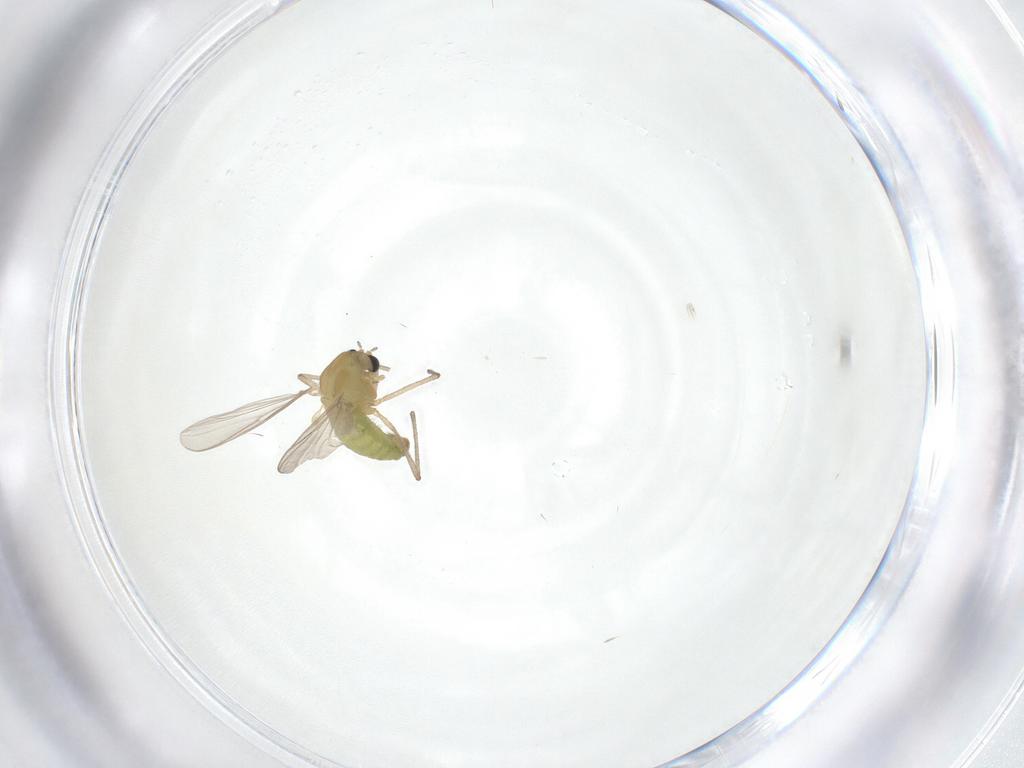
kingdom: Animalia
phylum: Arthropoda
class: Insecta
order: Diptera
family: Chironomidae
